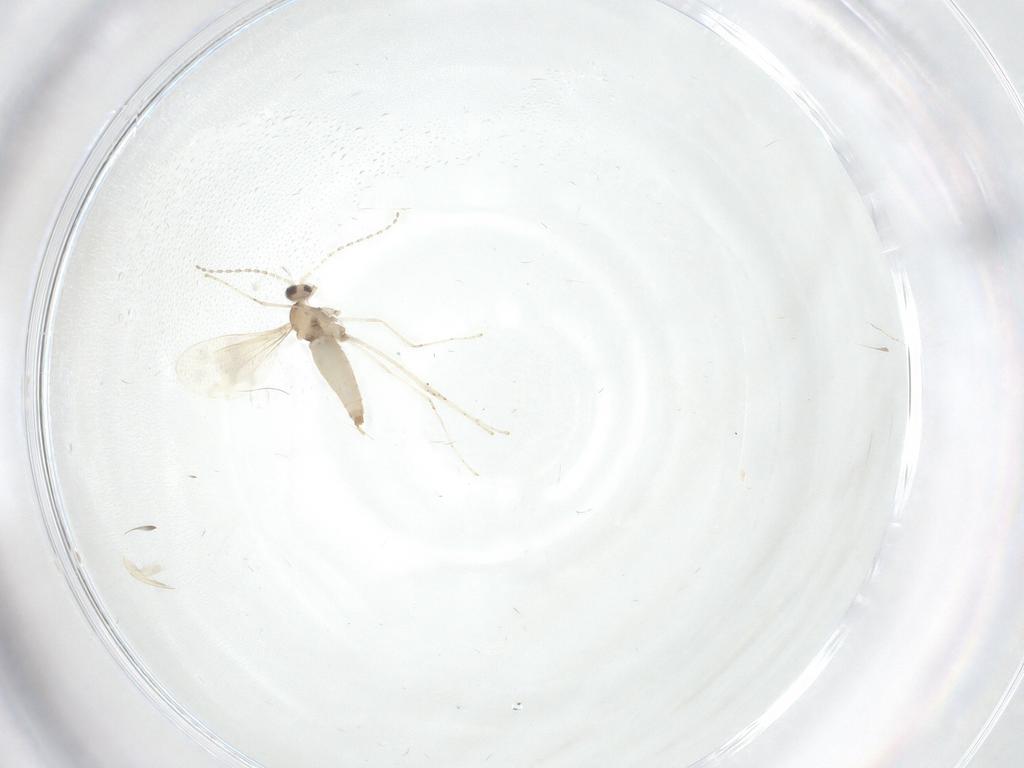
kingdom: Animalia
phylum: Arthropoda
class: Insecta
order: Diptera
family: Cecidomyiidae
